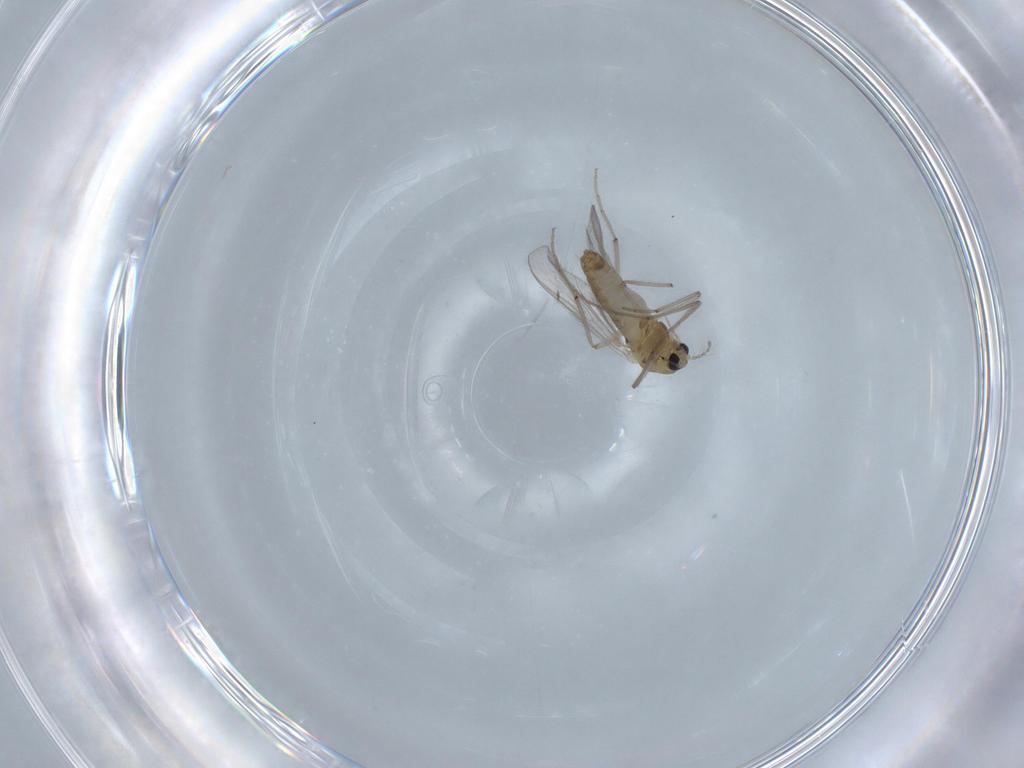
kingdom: Animalia
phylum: Arthropoda
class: Insecta
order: Diptera
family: Chironomidae
